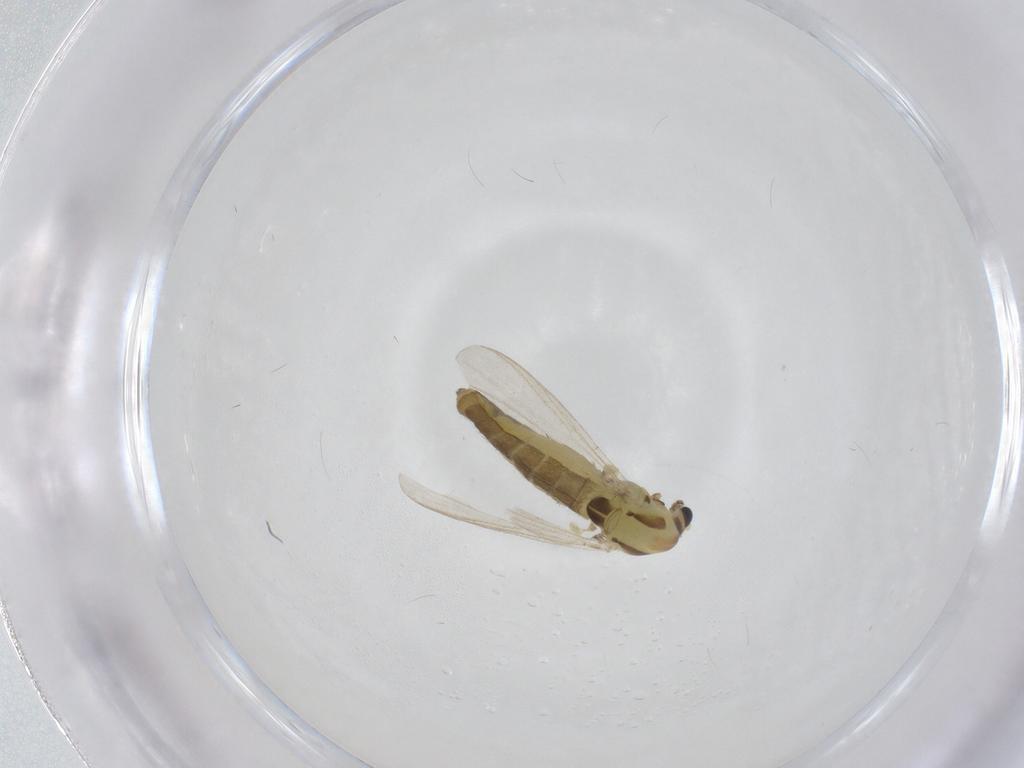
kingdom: Animalia
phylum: Arthropoda
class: Insecta
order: Diptera
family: Chironomidae
